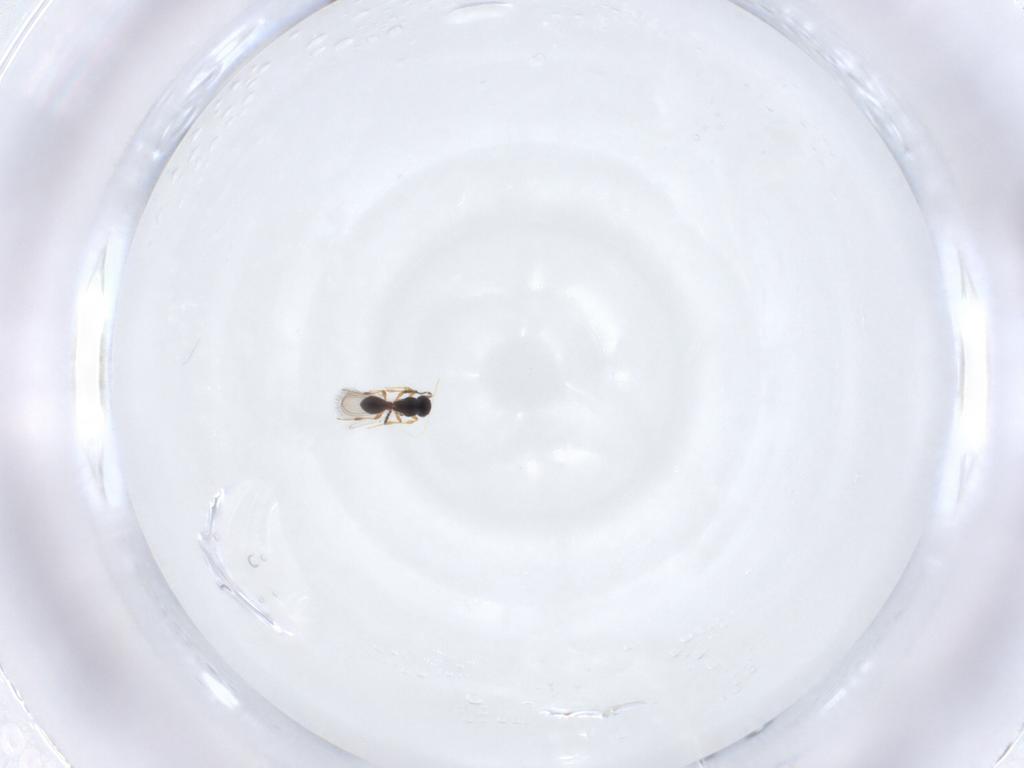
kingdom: Animalia
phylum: Arthropoda
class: Insecta
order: Hymenoptera
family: Platygastridae
